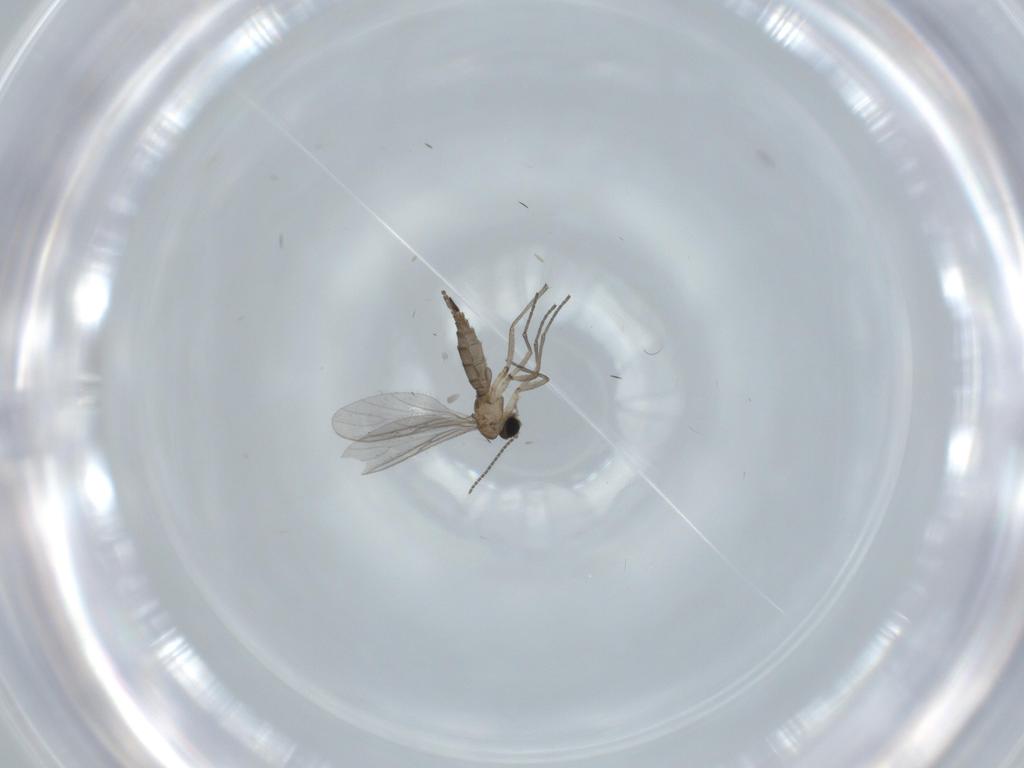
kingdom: Animalia
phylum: Arthropoda
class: Insecta
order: Diptera
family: Sciaridae
